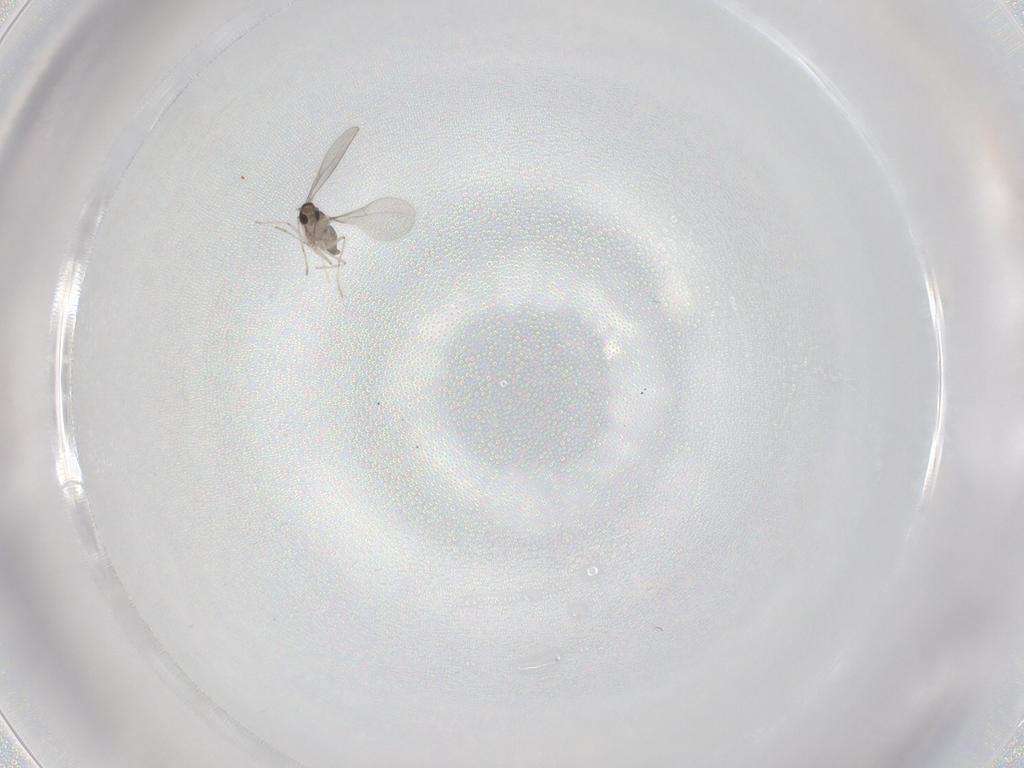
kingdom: Animalia
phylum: Arthropoda
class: Insecta
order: Diptera
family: Cecidomyiidae
